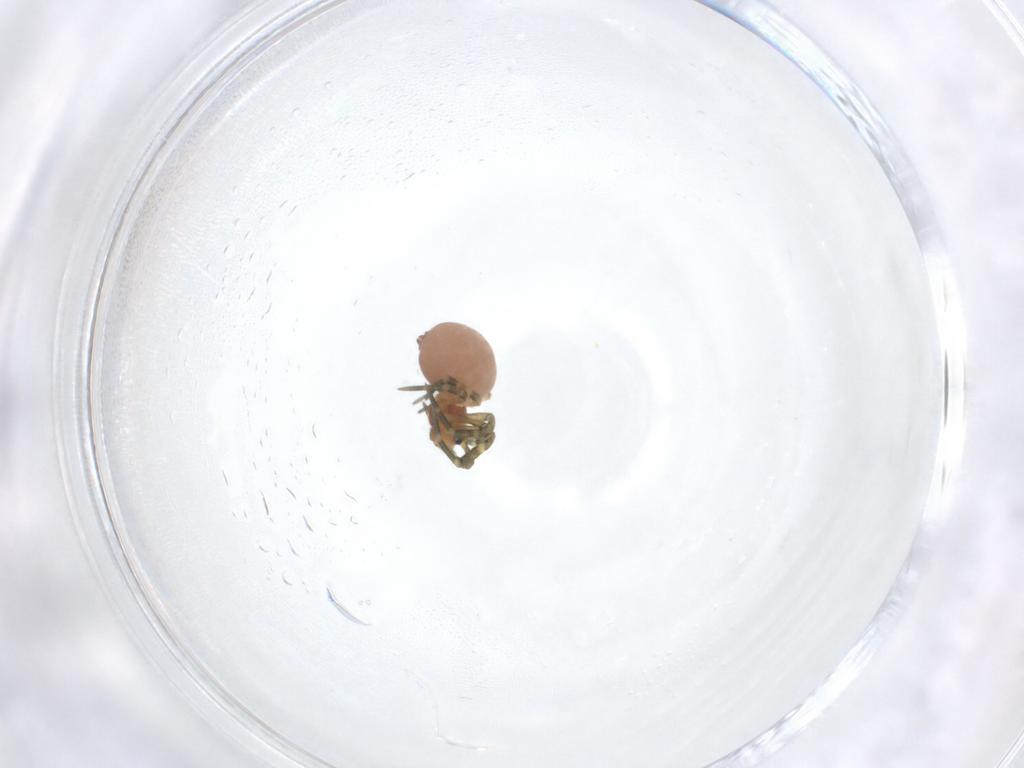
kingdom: Animalia
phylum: Arthropoda
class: Arachnida
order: Araneae
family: Linyphiidae
